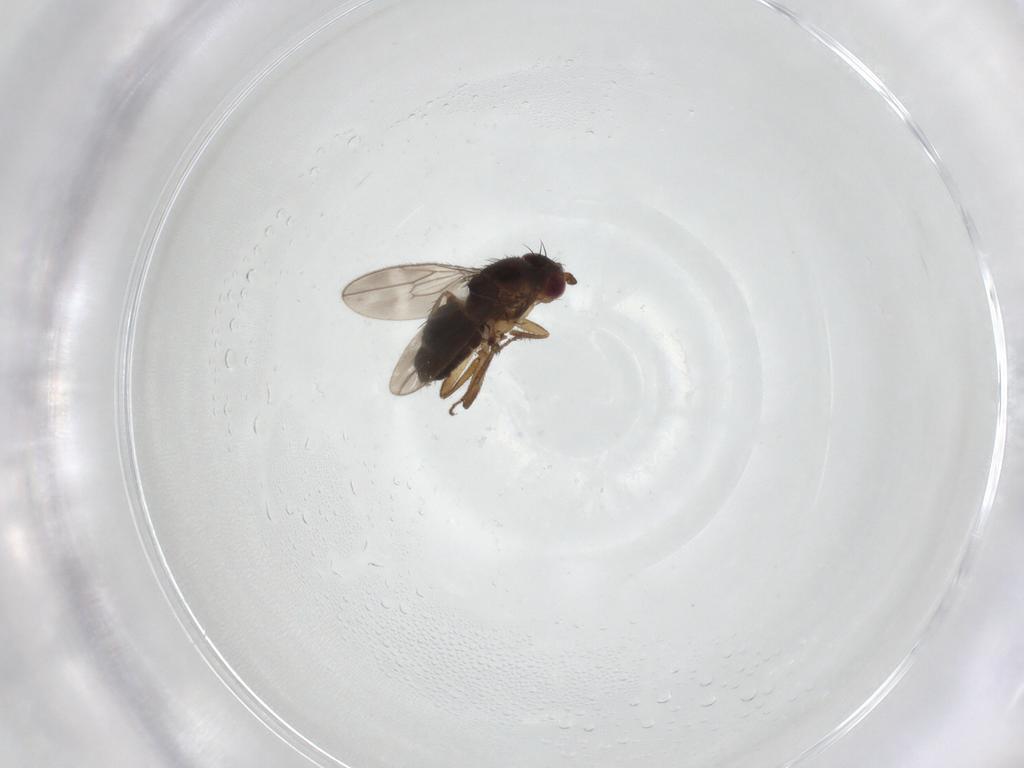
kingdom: Animalia
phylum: Arthropoda
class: Insecta
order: Diptera
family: Sphaeroceridae
